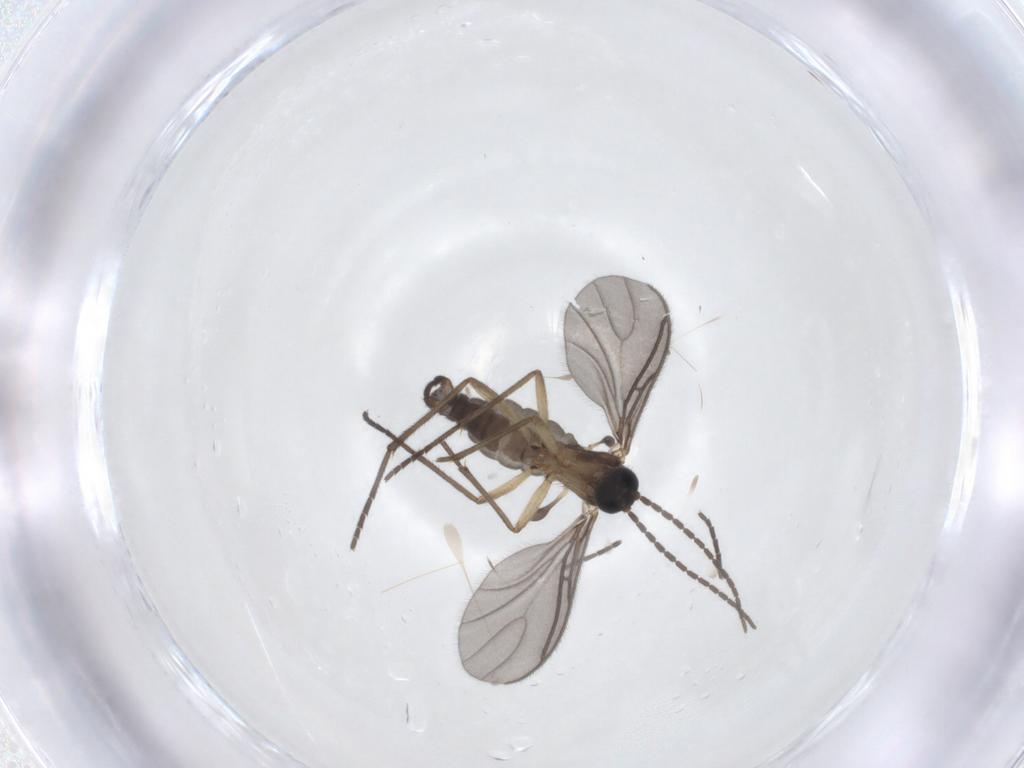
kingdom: Animalia
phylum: Arthropoda
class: Insecta
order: Diptera
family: Sciaridae
